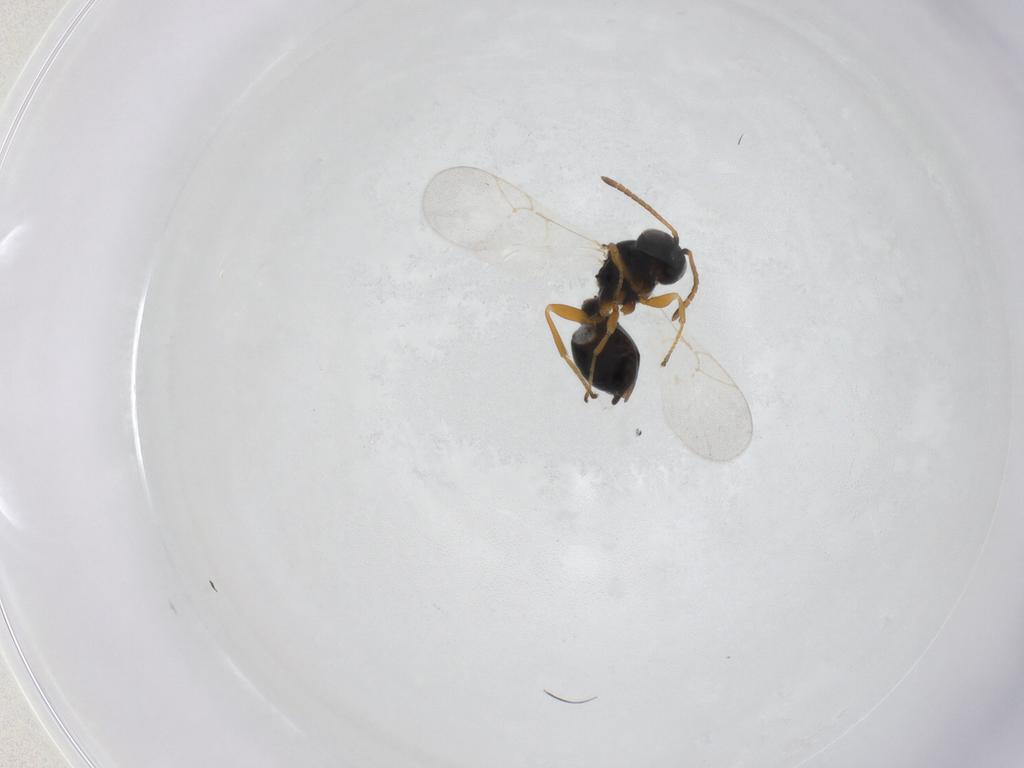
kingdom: Animalia
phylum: Arthropoda
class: Insecta
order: Hymenoptera
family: Cynipidae
